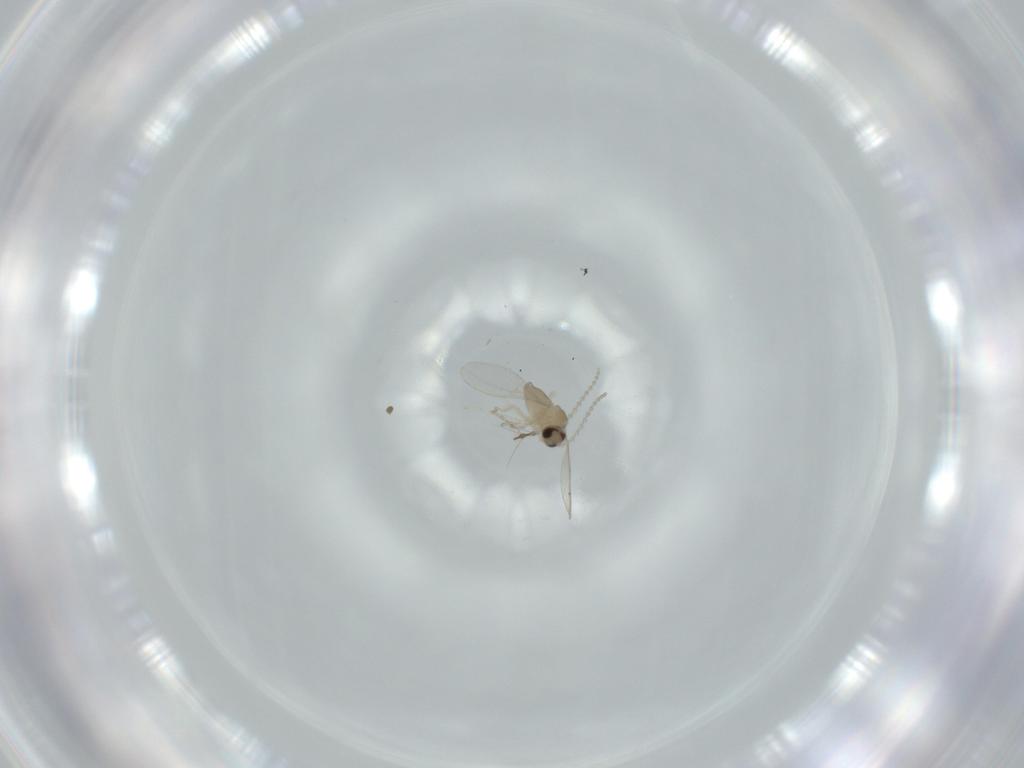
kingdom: Animalia
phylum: Arthropoda
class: Insecta
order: Diptera
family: Cecidomyiidae
